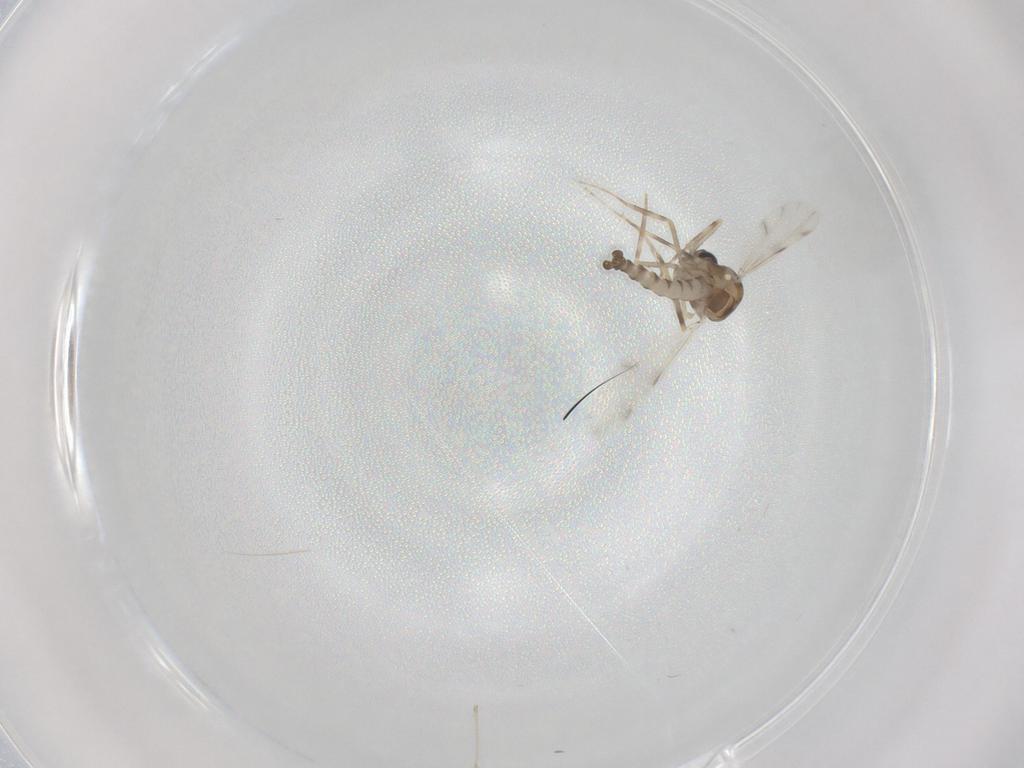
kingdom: Animalia
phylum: Arthropoda
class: Insecta
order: Diptera
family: Ceratopogonidae
